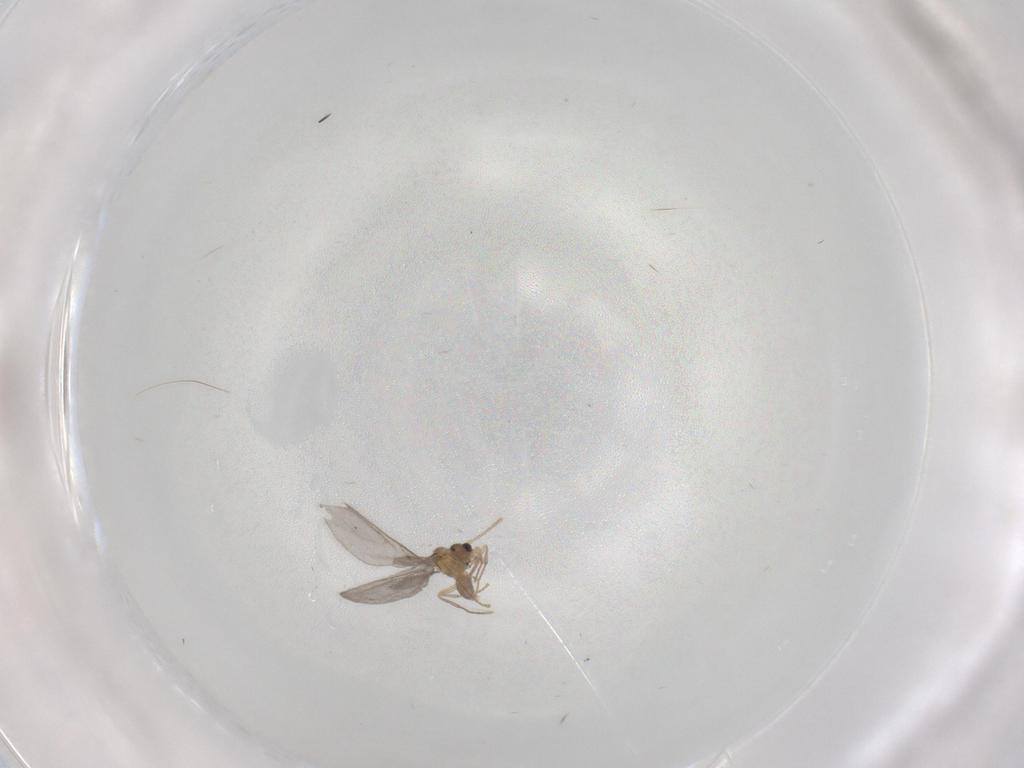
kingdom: Animalia
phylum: Arthropoda
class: Insecta
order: Hymenoptera
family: Formicidae
